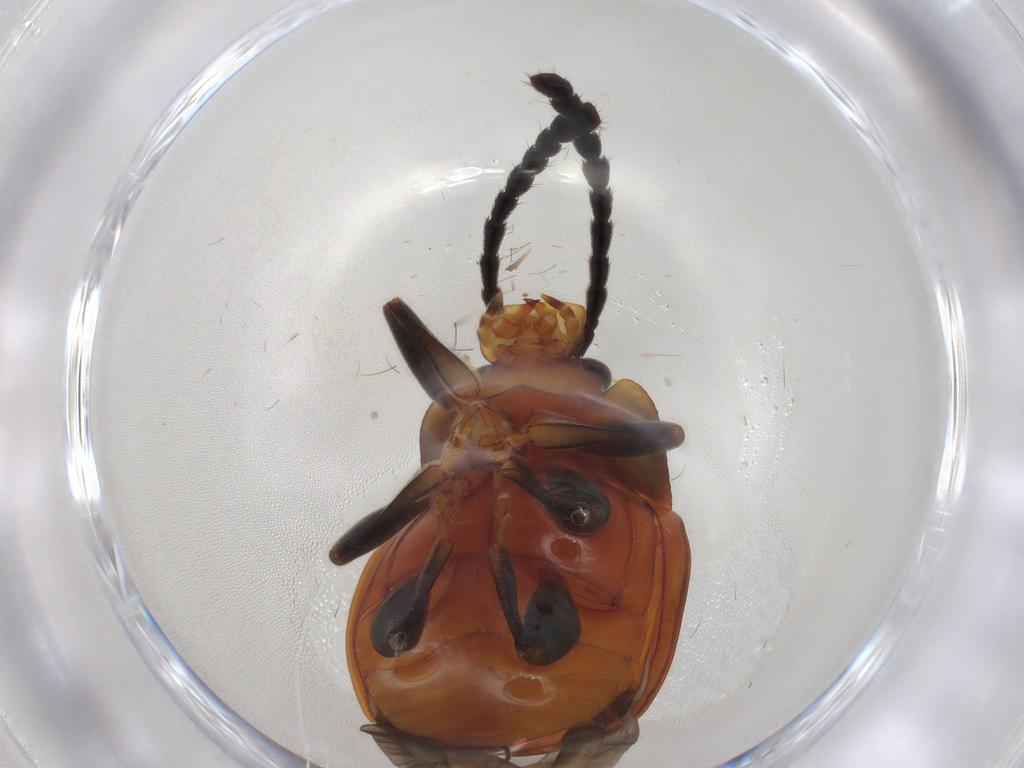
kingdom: Animalia
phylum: Arthropoda
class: Insecta
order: Coleoptera
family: Endomychidae
